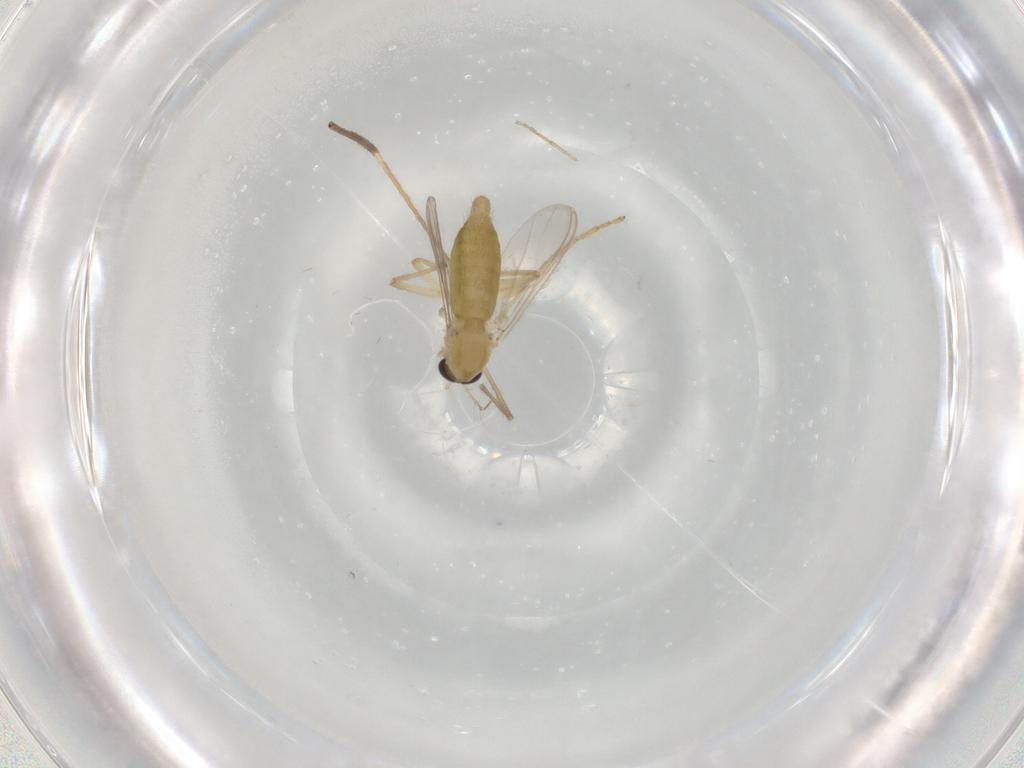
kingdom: Animalia
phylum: Arthropoda
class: Insecta
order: Diptera
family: Chironomidae
